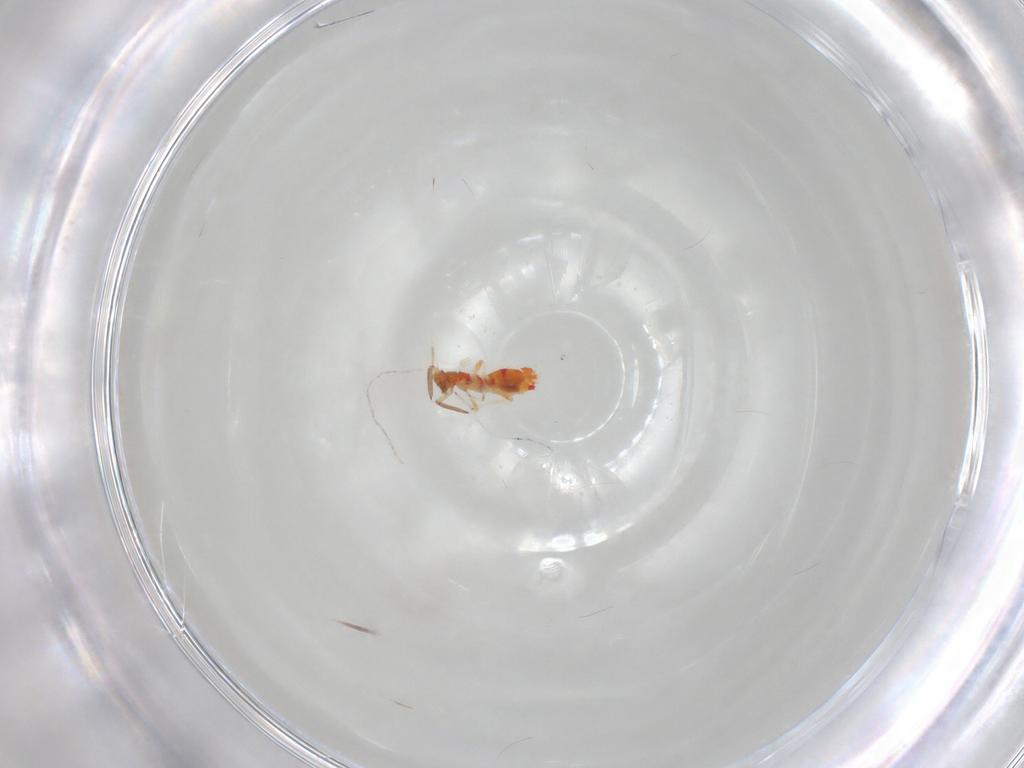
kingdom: Animalia
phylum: Arthropoda
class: Insecta
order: Thysanoptera
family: Aeolothripidae
